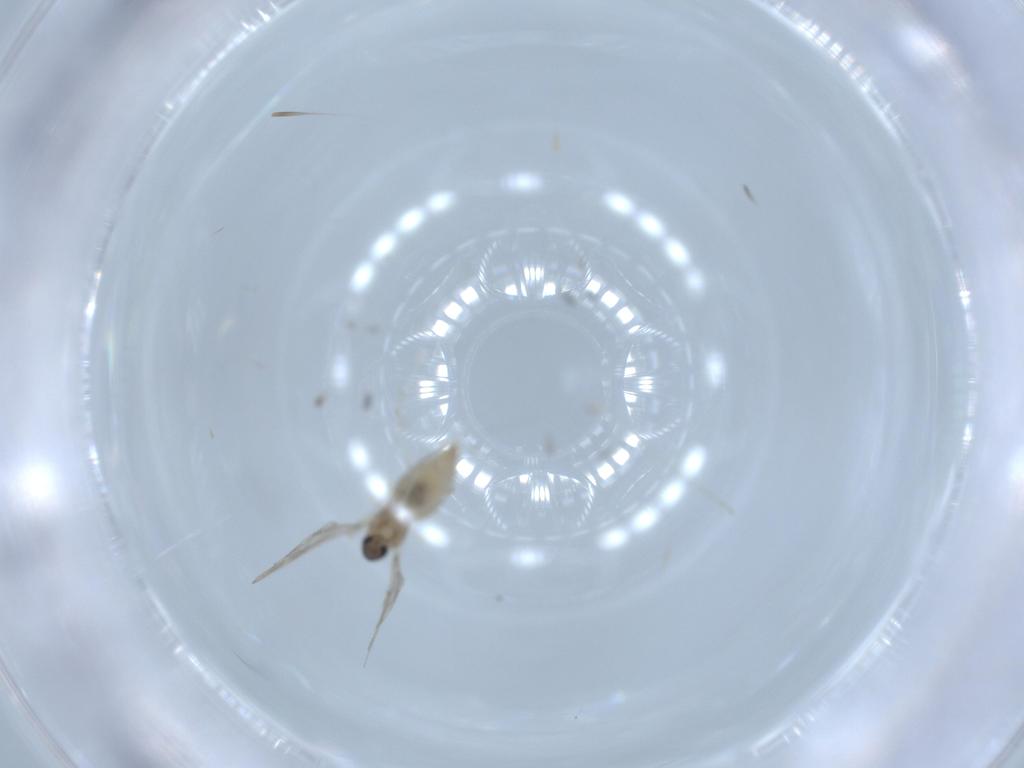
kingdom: Animalia
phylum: Arthropoda
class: Insecta
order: Diptera
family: Cecidomyiidae
